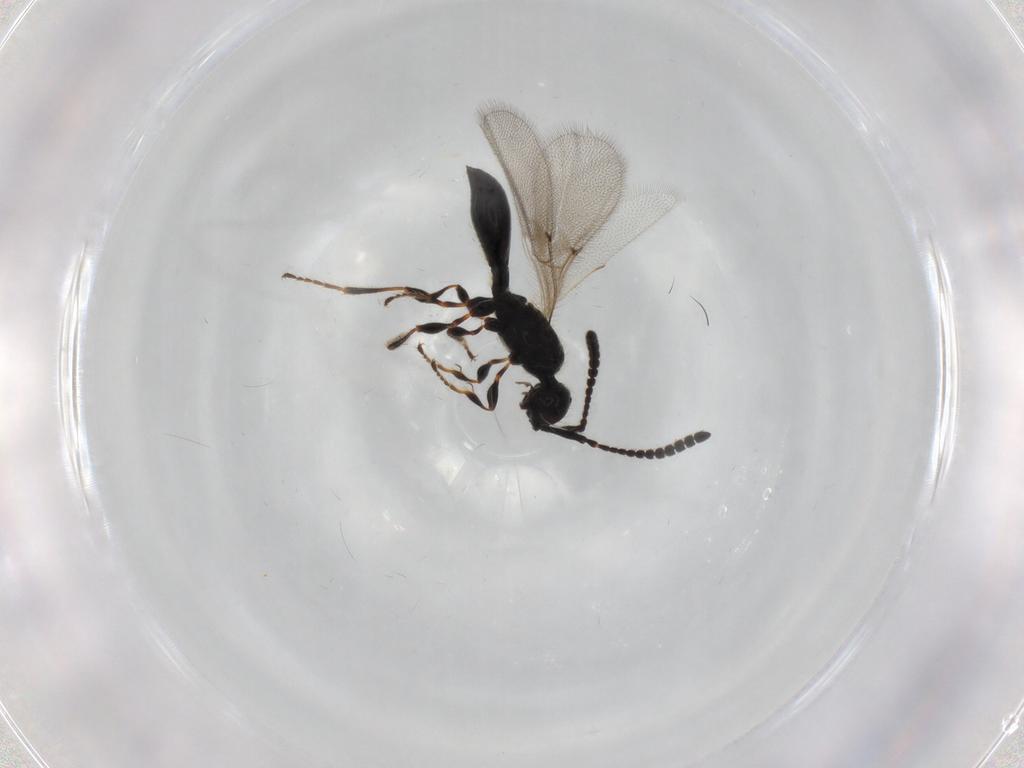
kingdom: Animalia
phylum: Arthropoda
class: Insecta
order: Hymenoptera
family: Diapriidae
